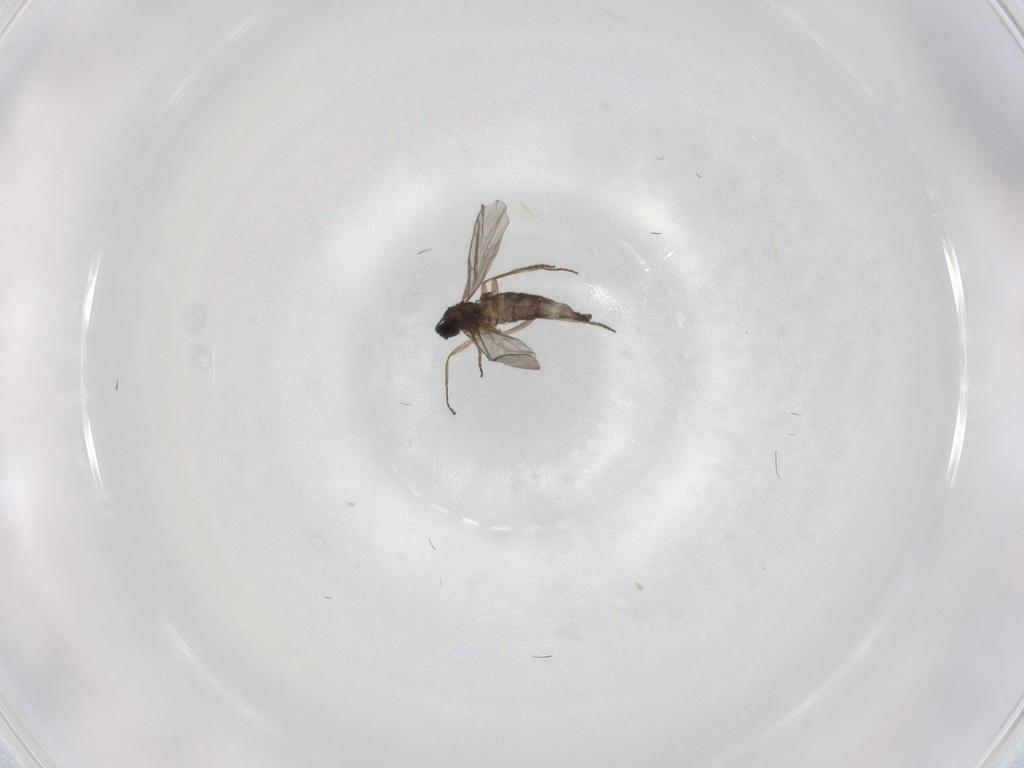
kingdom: Animalia
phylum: Arthropoda
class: Insecta
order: Diptera
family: Sciaridae
